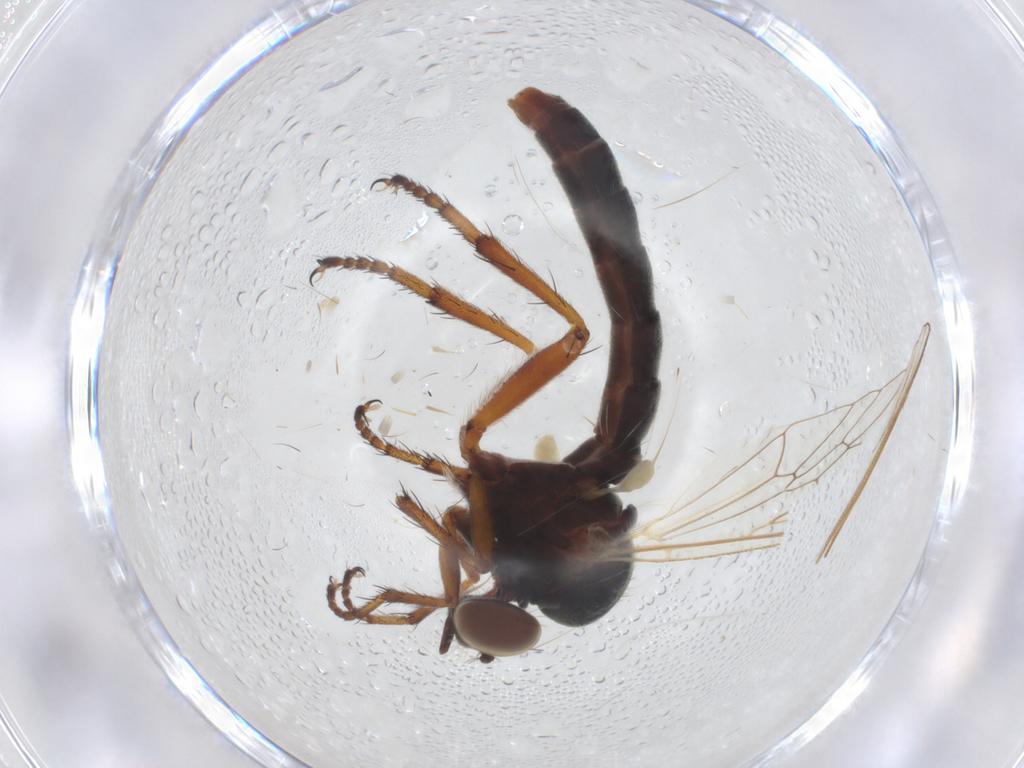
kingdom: Animalia
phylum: Arthropoda
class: Insecta
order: Diptera
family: Asilidae
